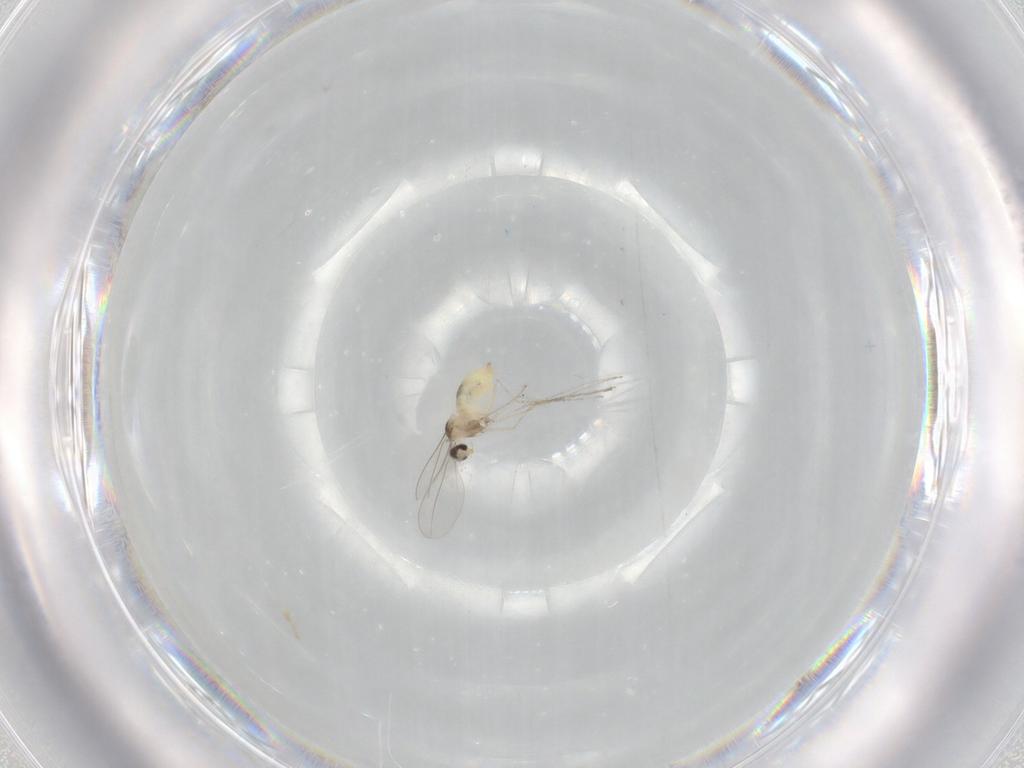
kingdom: Animalia
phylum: Arthropoda
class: Insecta
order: Diptera
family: Cecidomyiidae
